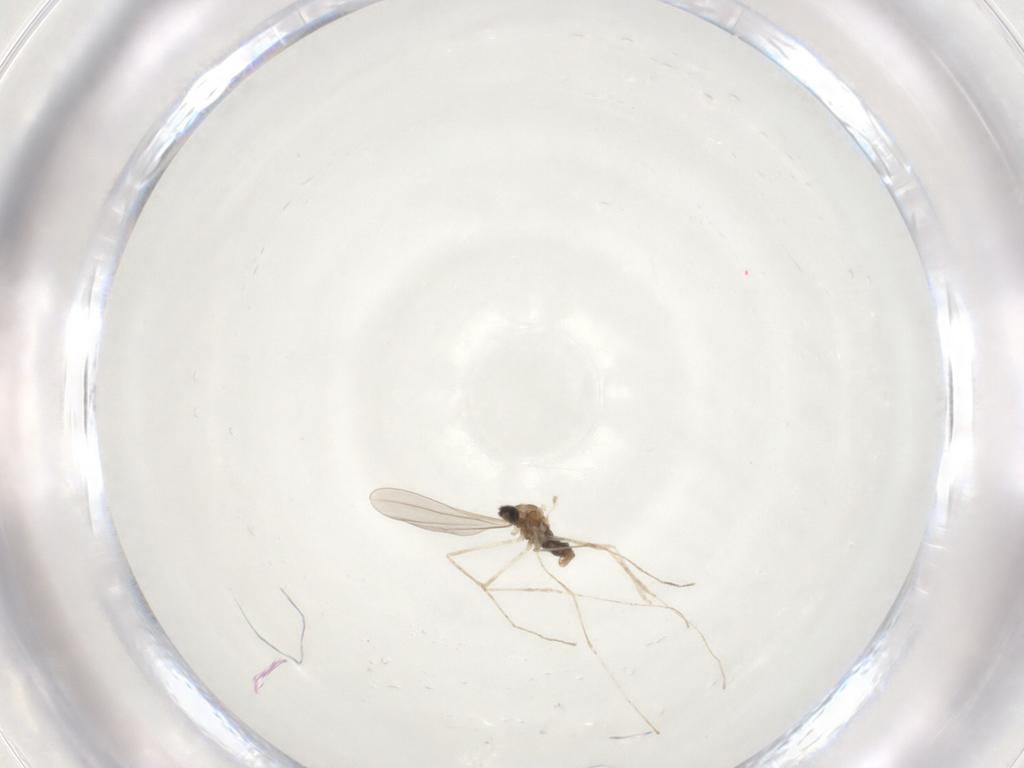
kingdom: Animalia
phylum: Arthropoda
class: Insecta
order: Diptera
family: Cecidomyiidae
